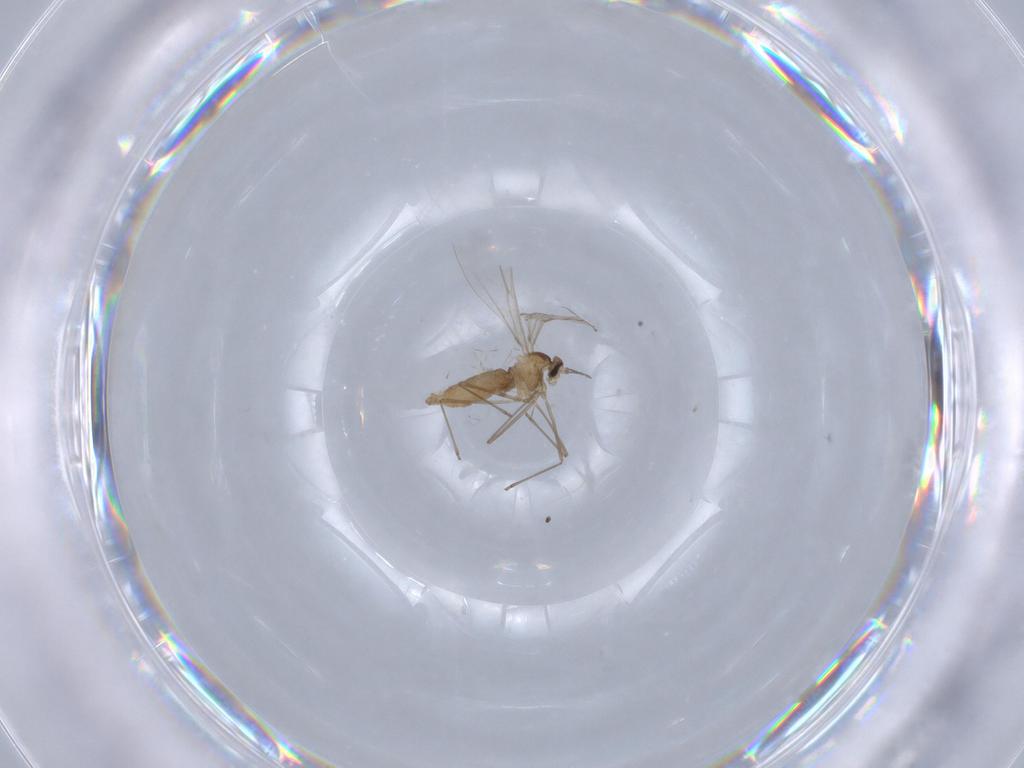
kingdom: Animalia
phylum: Arthropoda
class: Insecta
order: Diptera
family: Cecidomyiidae
